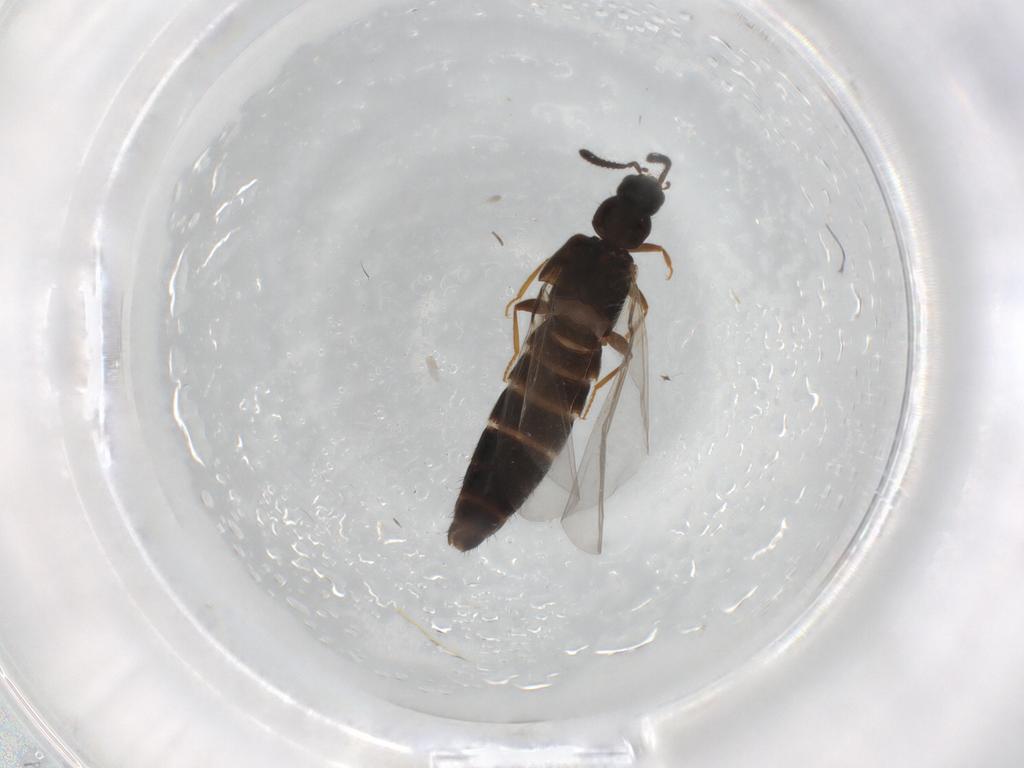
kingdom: Animalia
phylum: Arthropoda
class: Insecta
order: Coleoptera
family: Staphylinidae
